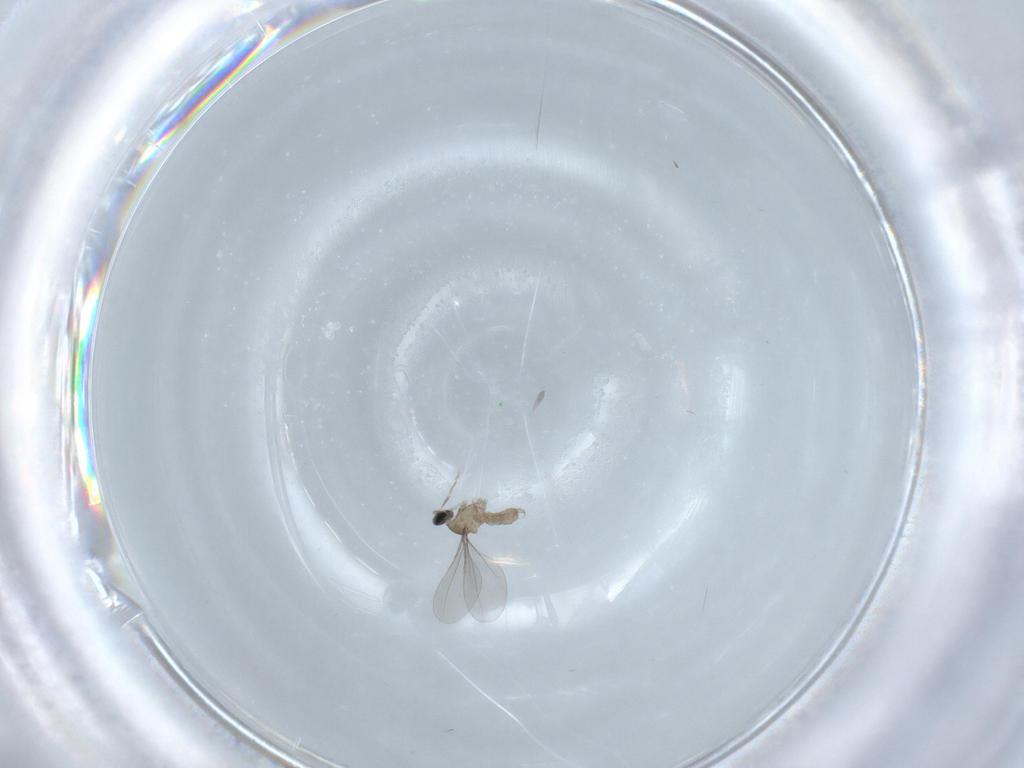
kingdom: Animalia
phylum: Arthropoda
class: Insecta
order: Diptera
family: Cecidomyiidae
